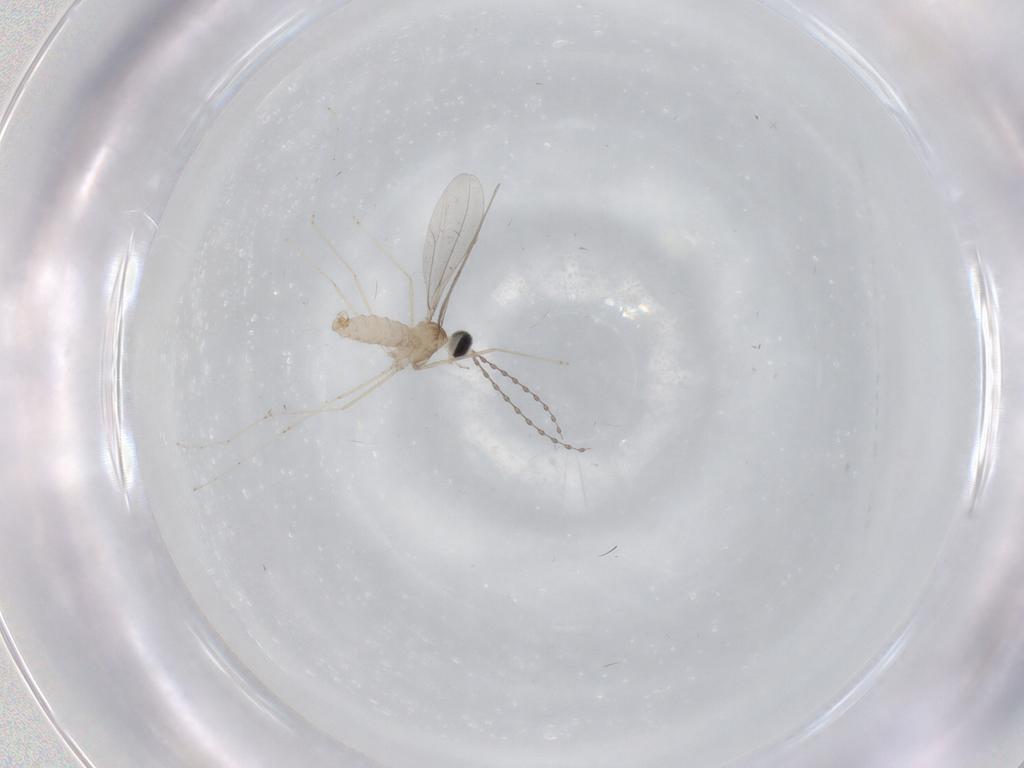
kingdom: Animalia
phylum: Arthropoda
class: Insecta
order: Diptera
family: Cecidomyiidae
